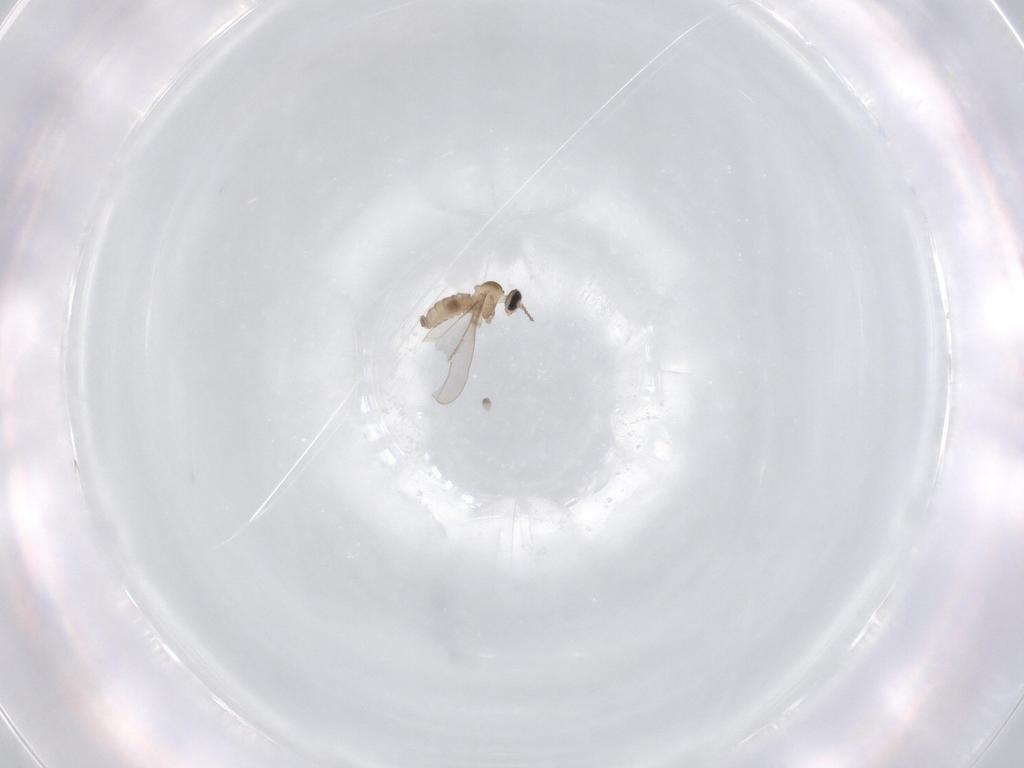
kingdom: Animalia
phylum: Arthropoda
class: Insecta
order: Diptera
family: Cecidomyiidae
